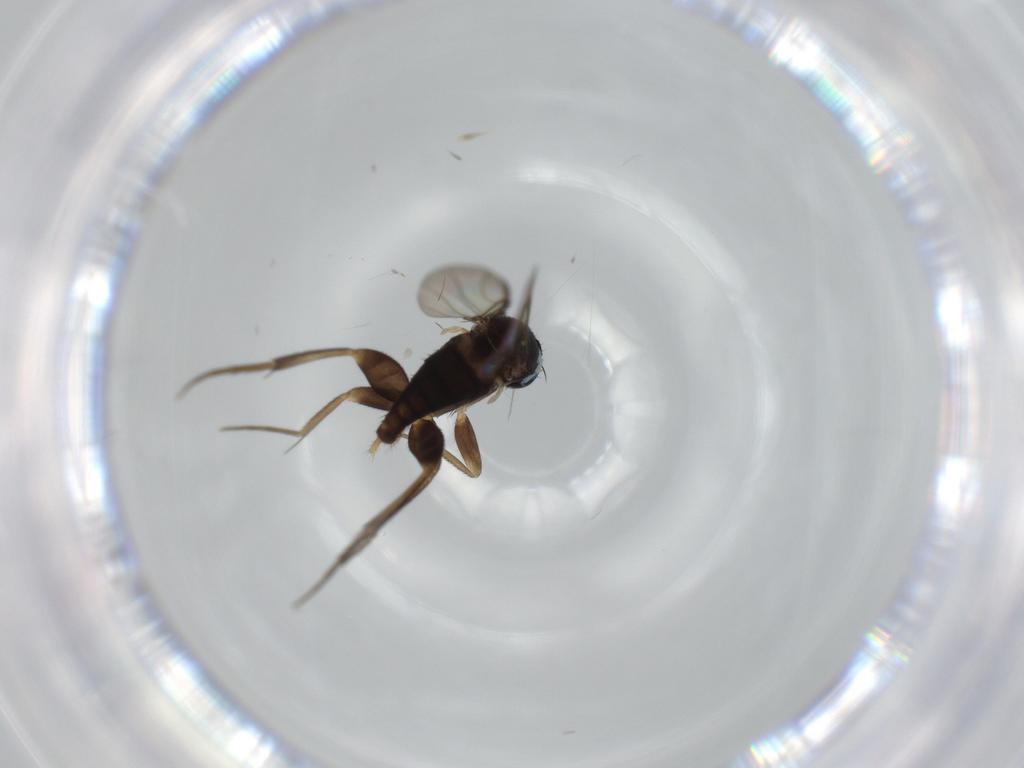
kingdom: Animalia
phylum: Arthropoda
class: Insecta
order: Diptera
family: Sciaridae
